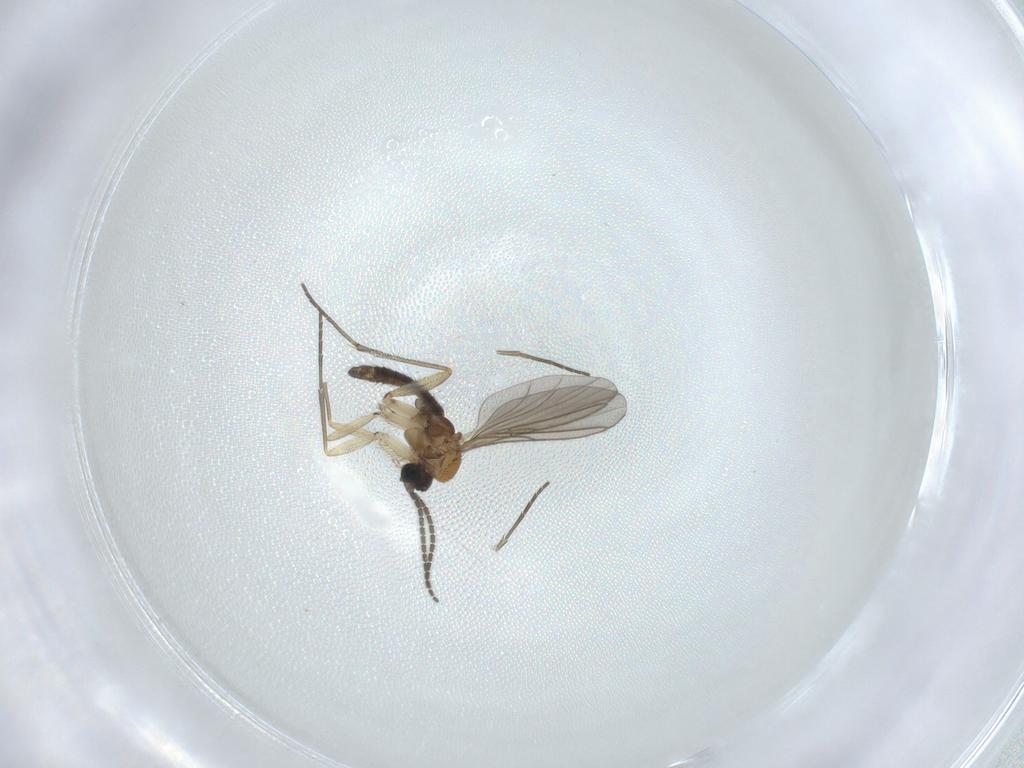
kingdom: Animalia
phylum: Arthropoda
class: Insecta
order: Diptera
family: Sciaridae
